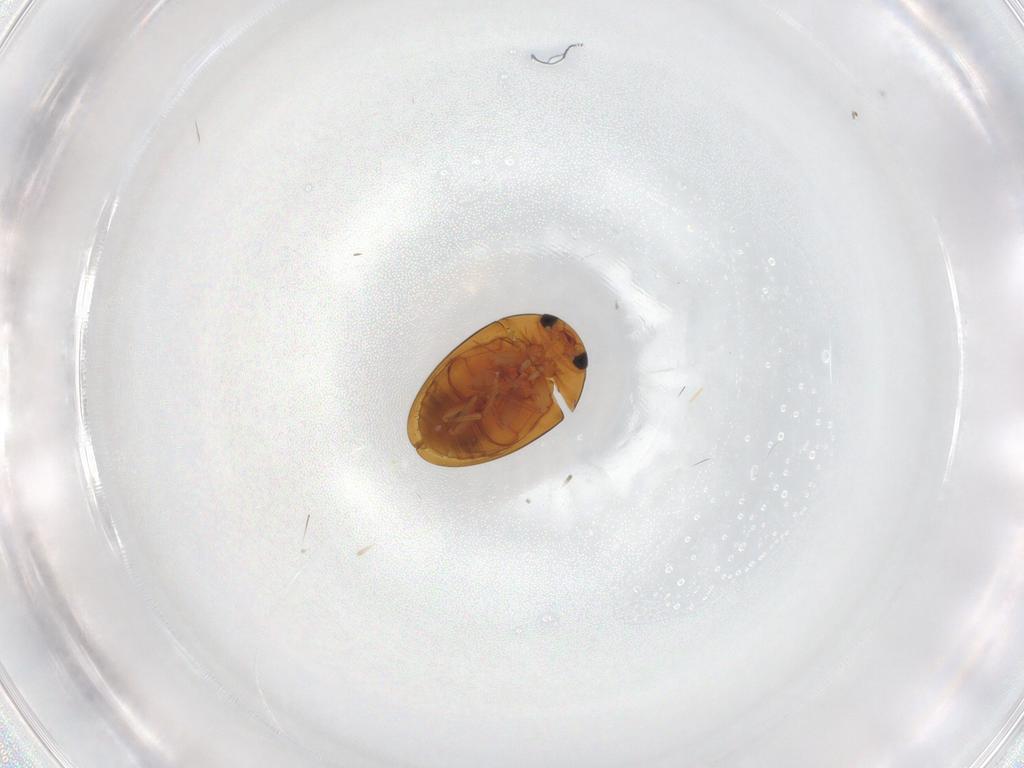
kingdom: Animalia
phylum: Arthropoda
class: Insecta
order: Coleoptera
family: Phalacridae
